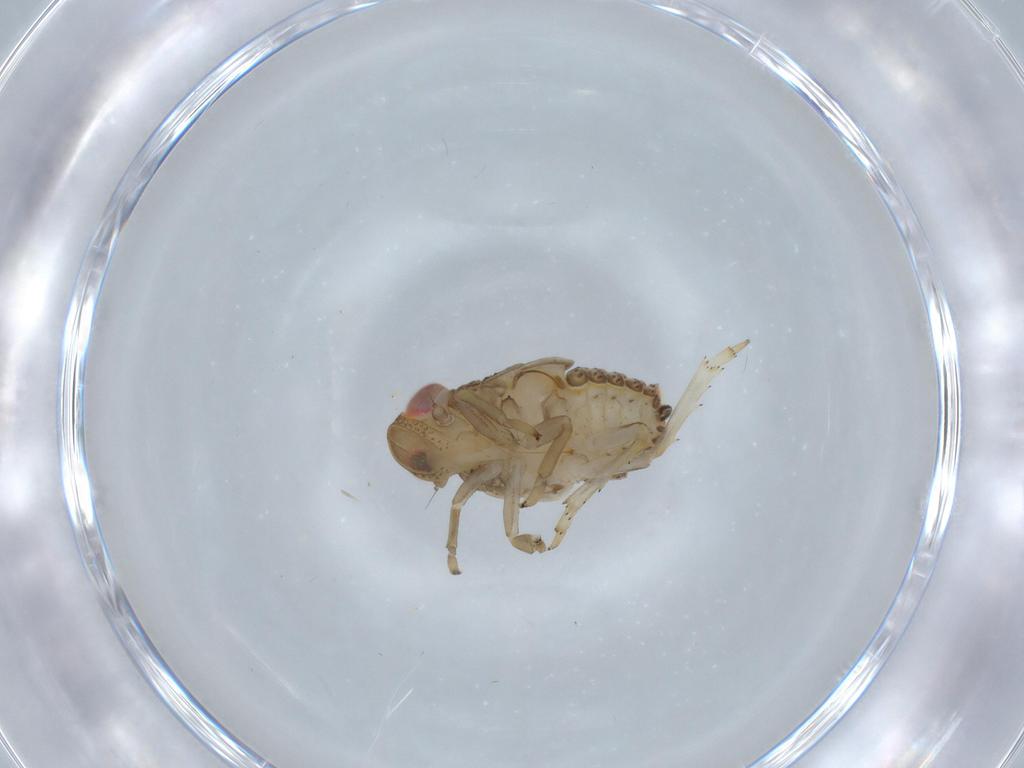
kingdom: Animalia
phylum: Arthropoda
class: Insecta
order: Hemiptera
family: Issidae
